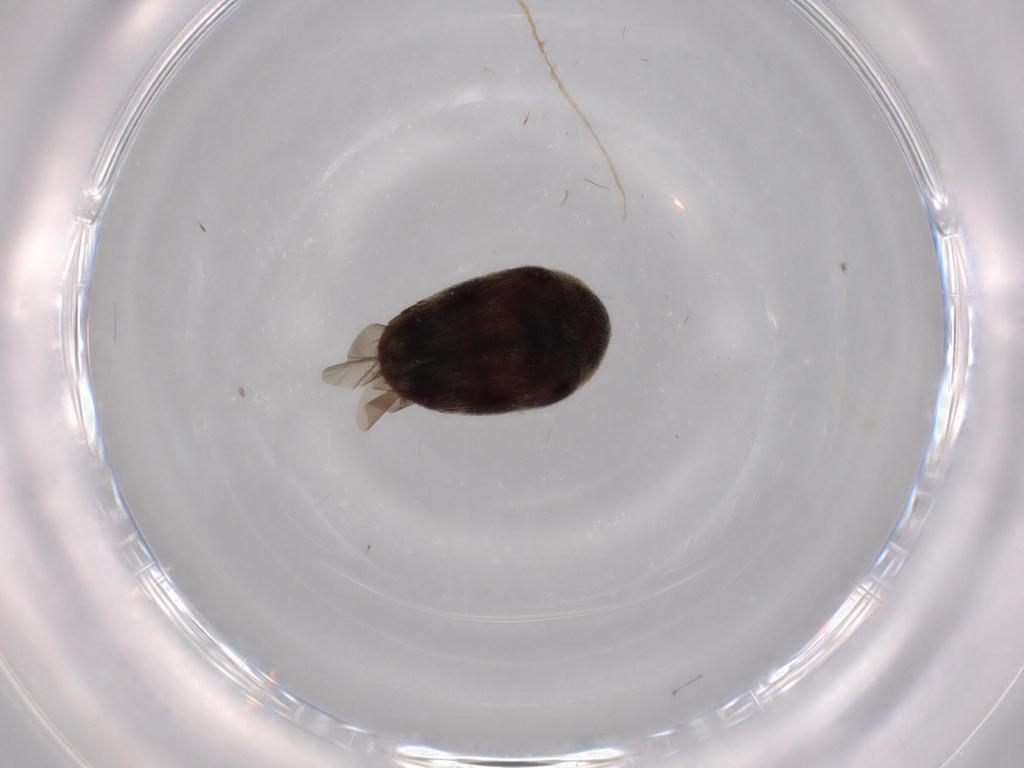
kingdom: Animalia
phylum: Arthropoda
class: Insecta
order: Coleoptera
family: Dermestidae
